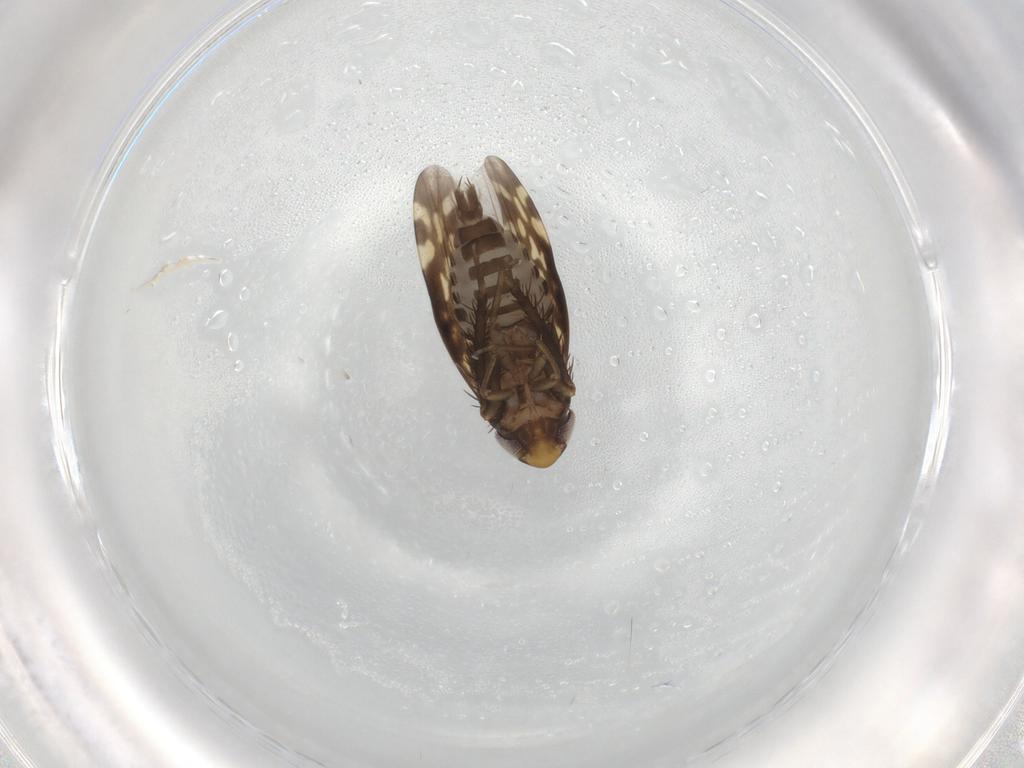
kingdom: Animalia
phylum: Arthropoda
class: Insecta
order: Hemiptera
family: Cicadellidae
